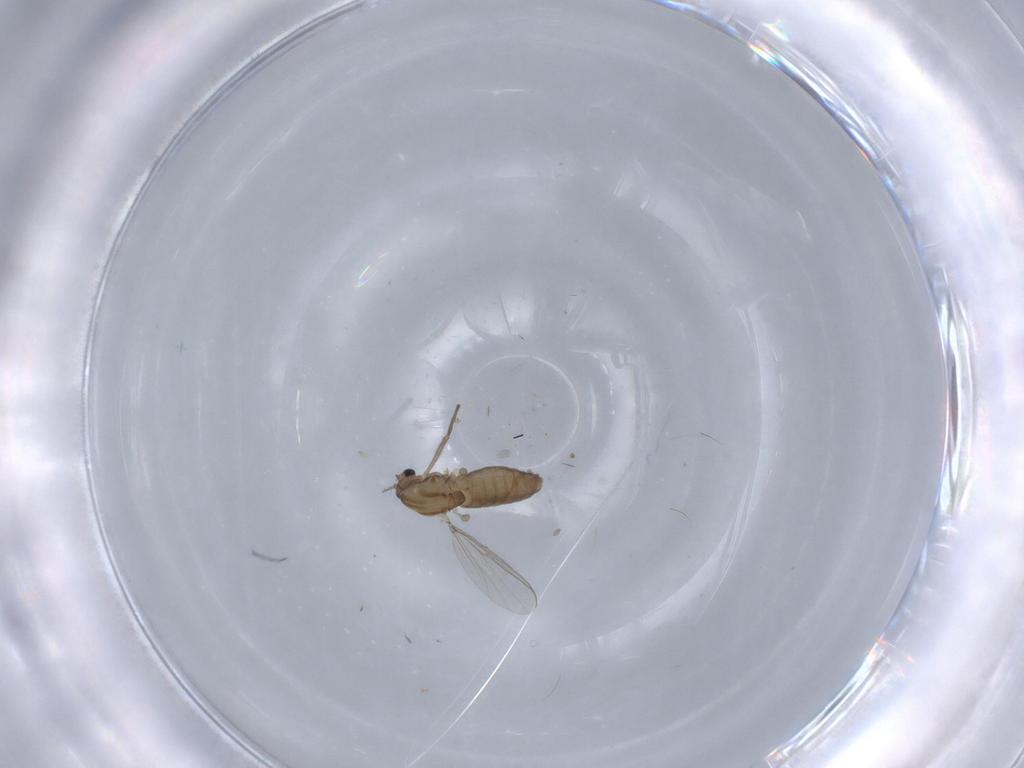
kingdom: Animalia
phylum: Arthropoda
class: Insecta
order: Diptera
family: Chironomidae
